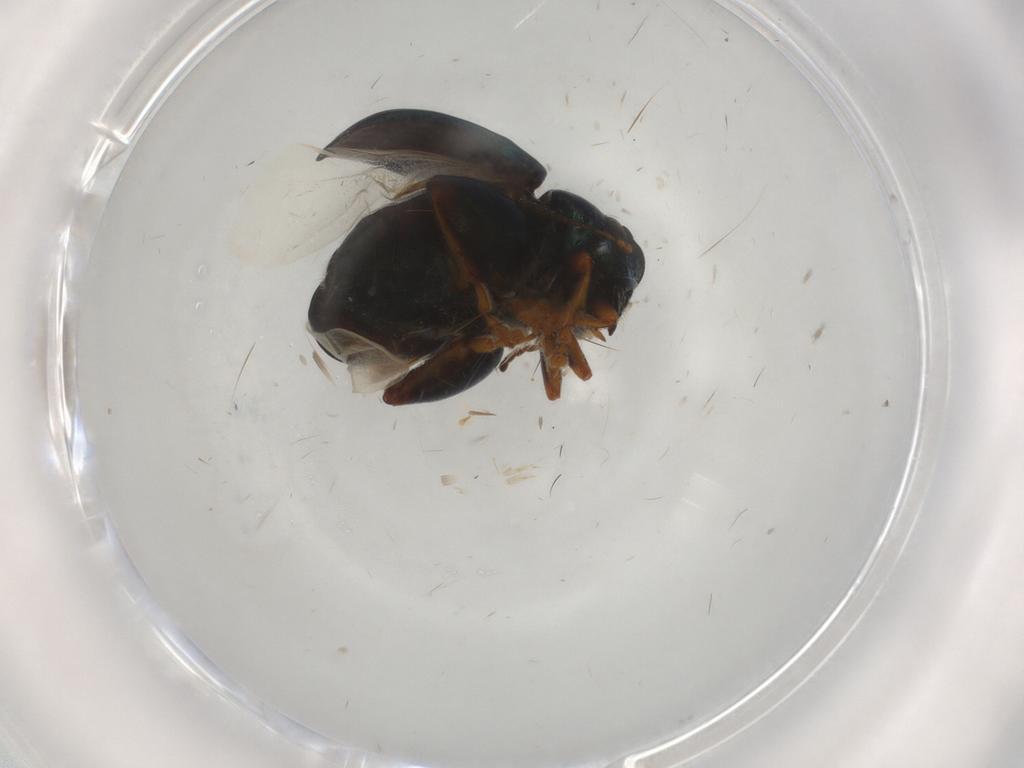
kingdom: Animalia
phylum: Arthropoda
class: Insecta
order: Coleoptera
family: Chrysomelidae
